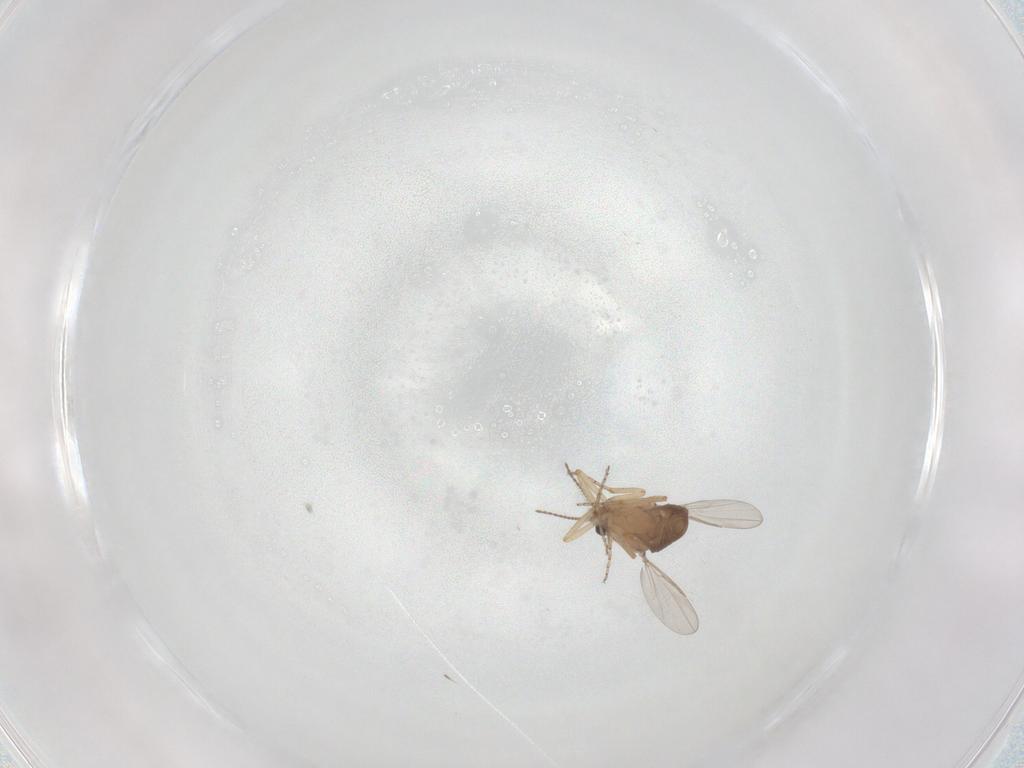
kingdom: Animalia
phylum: Arthropoda
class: Insecta
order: Diptera
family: Ceratopogonidae
